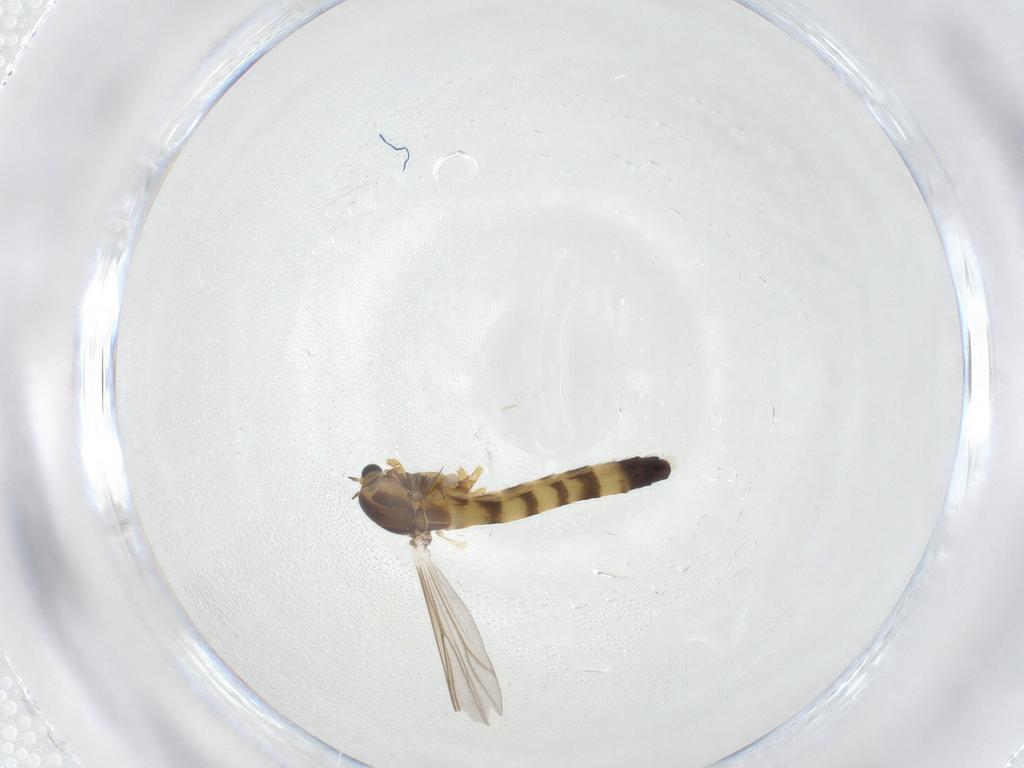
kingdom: Animalia
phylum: Arthropoda
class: Insecta
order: Diptera
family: Chironomidae
